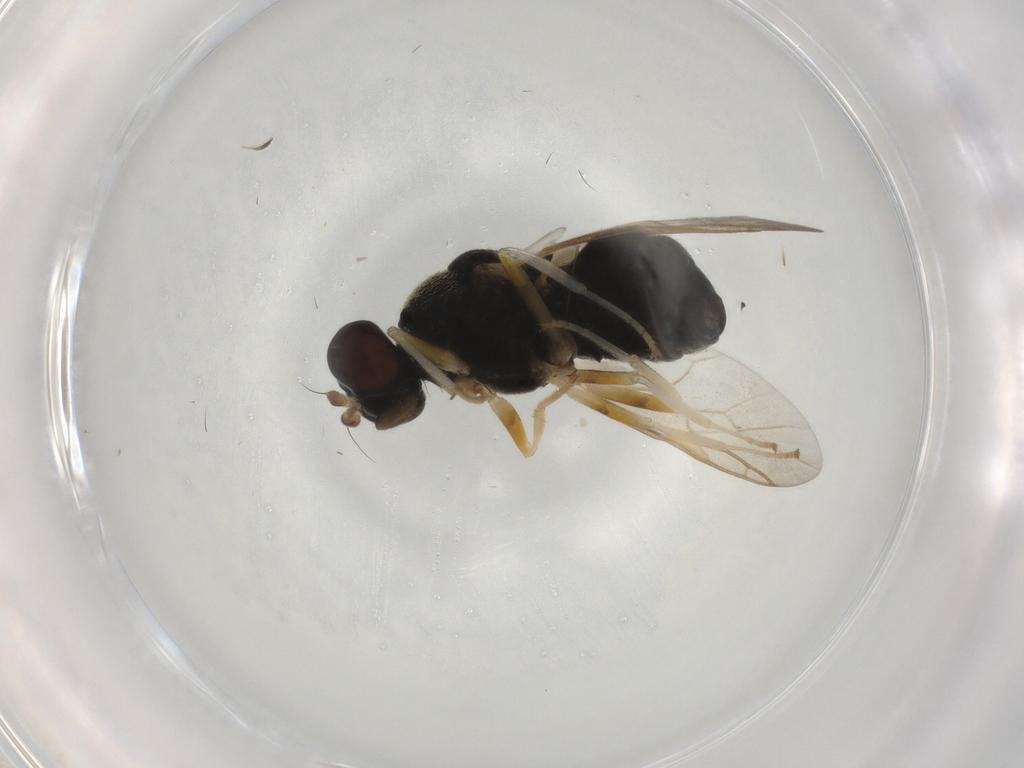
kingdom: Animalia
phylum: Arthropoda
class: Insecta
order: Diptera
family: Stratiomyidae
